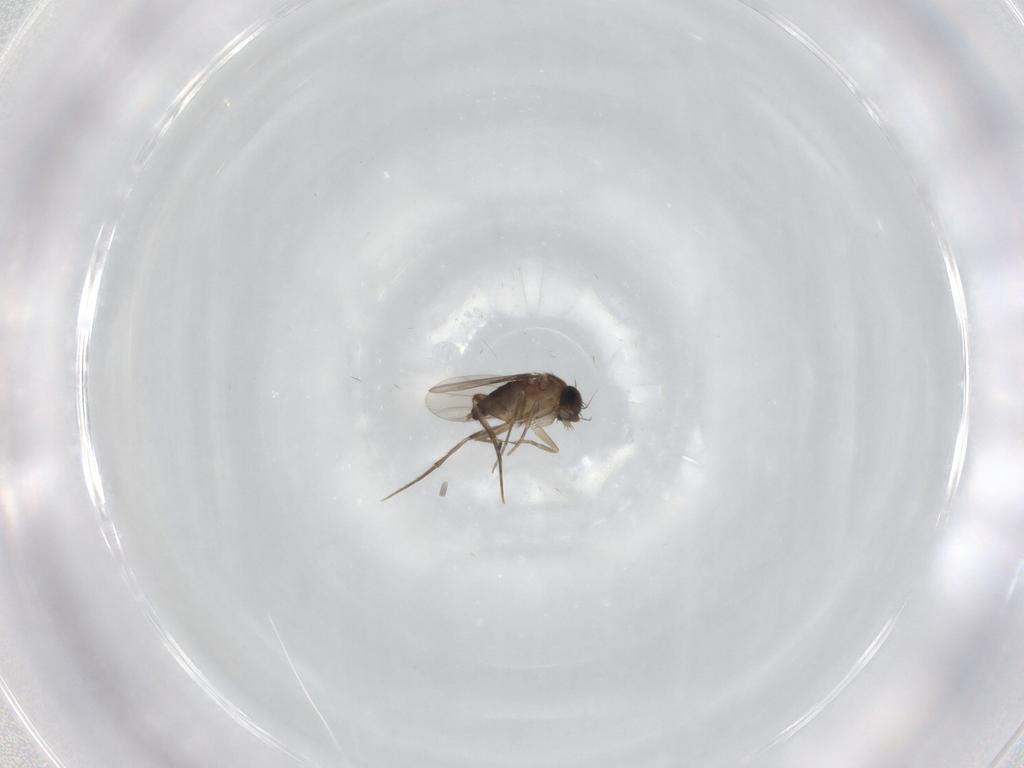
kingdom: Animalia
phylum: Arthropoda
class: Insecta
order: Diptera
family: Phoridae
